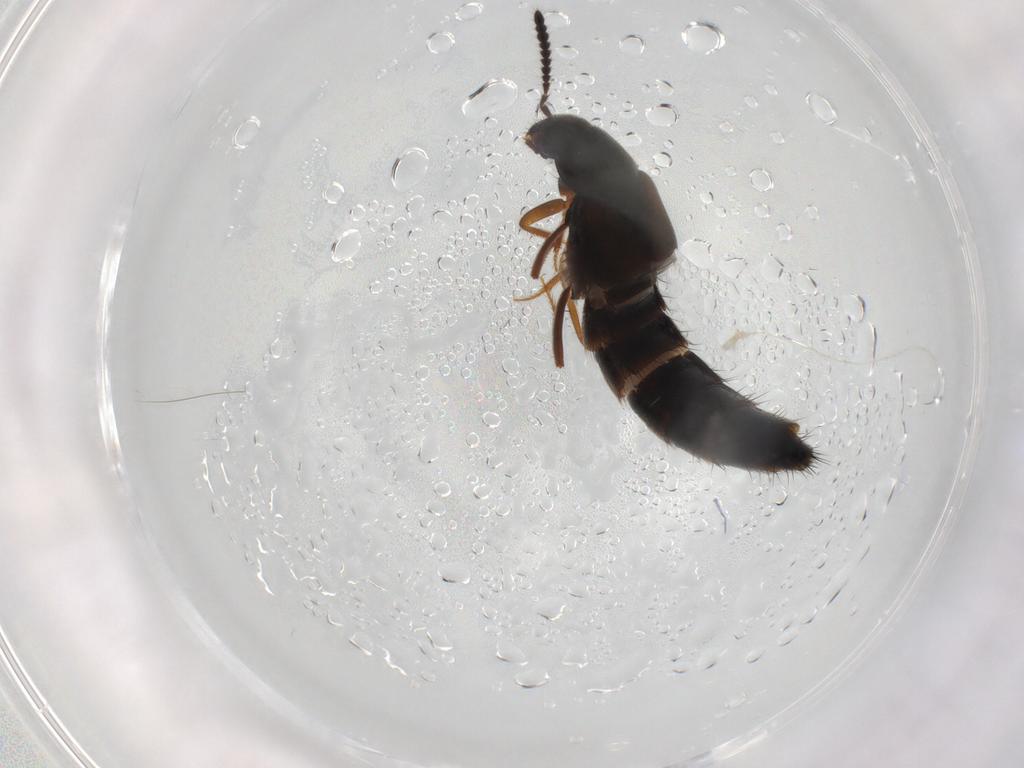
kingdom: Animalia
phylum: Arthropoda
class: Insecta
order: Coleoptera
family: Staphylinidae
